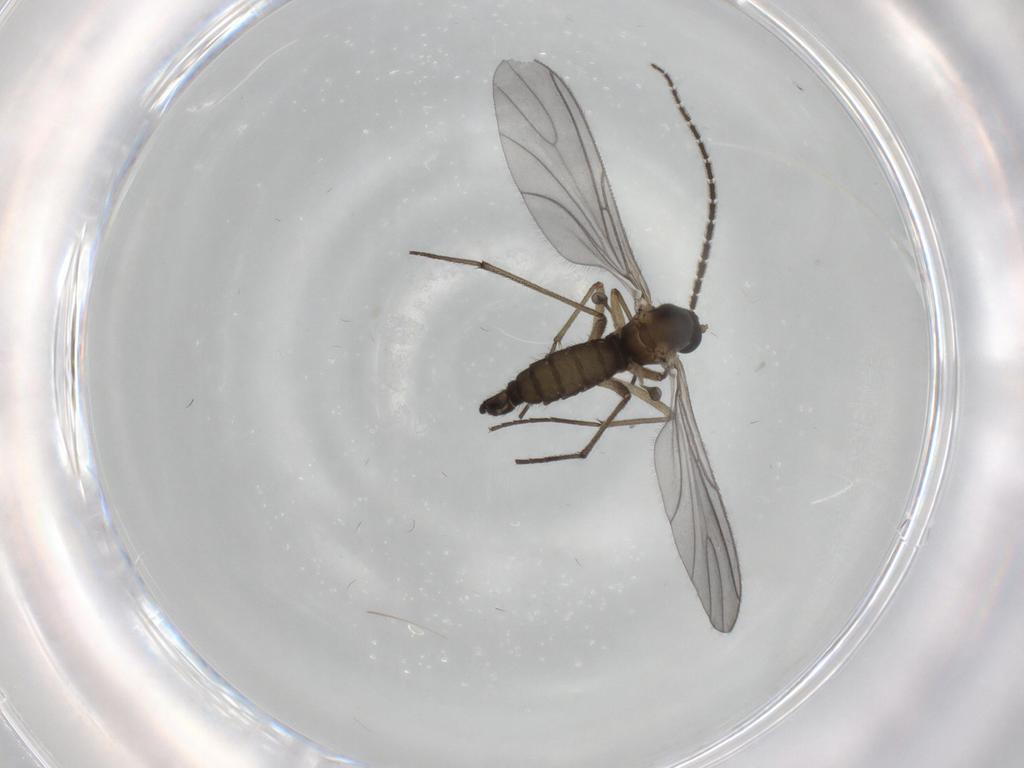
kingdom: Animalia
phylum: Arthropoda
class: Insecta
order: Diptera
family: Sciaridae
